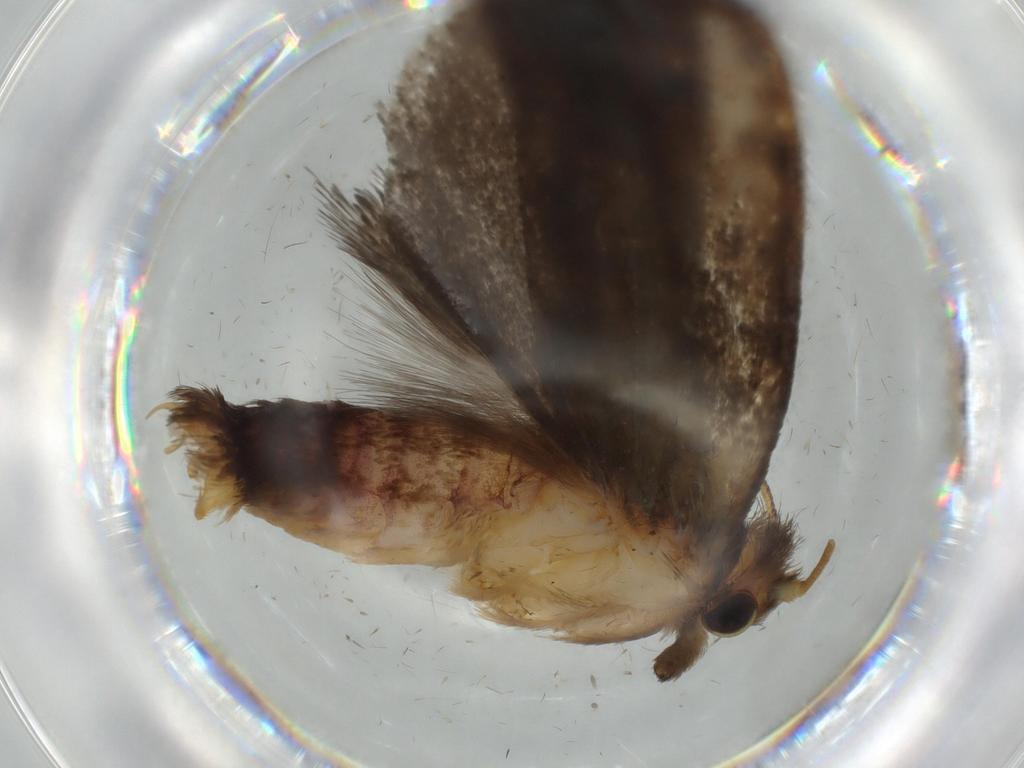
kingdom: Animalia
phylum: Arthropoda
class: Insecta
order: Lepidoptera
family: Tineidae
